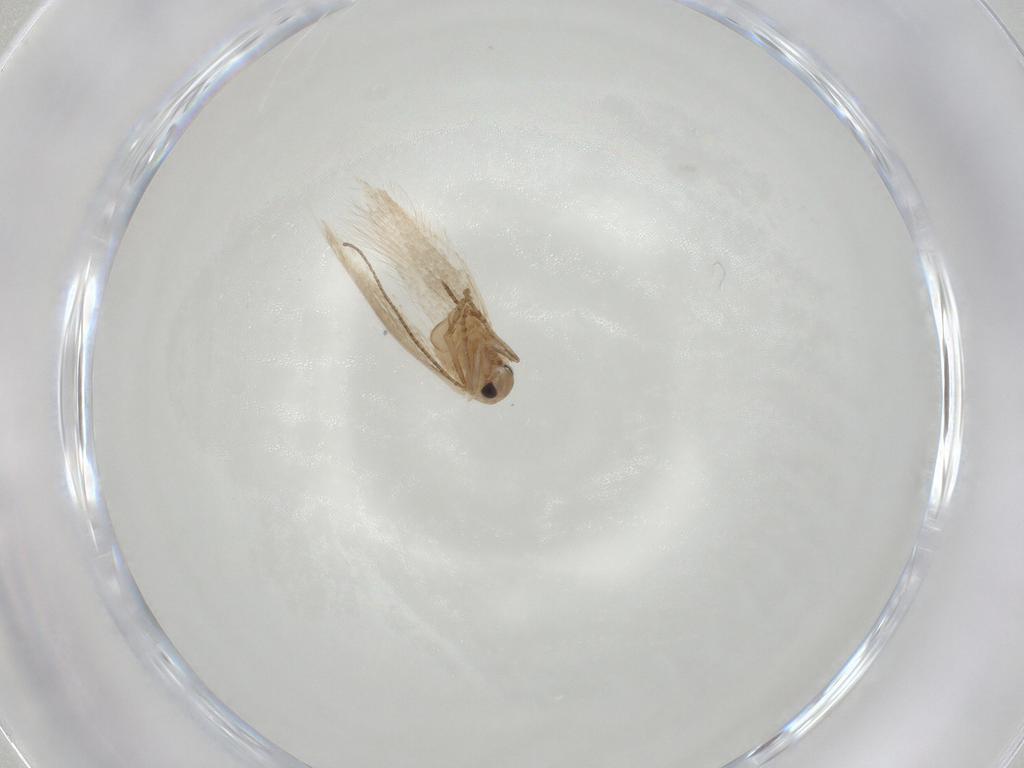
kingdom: Animalia
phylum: Arthropoda
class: Insecta
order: Lepidoptera
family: Bucculatricidae
